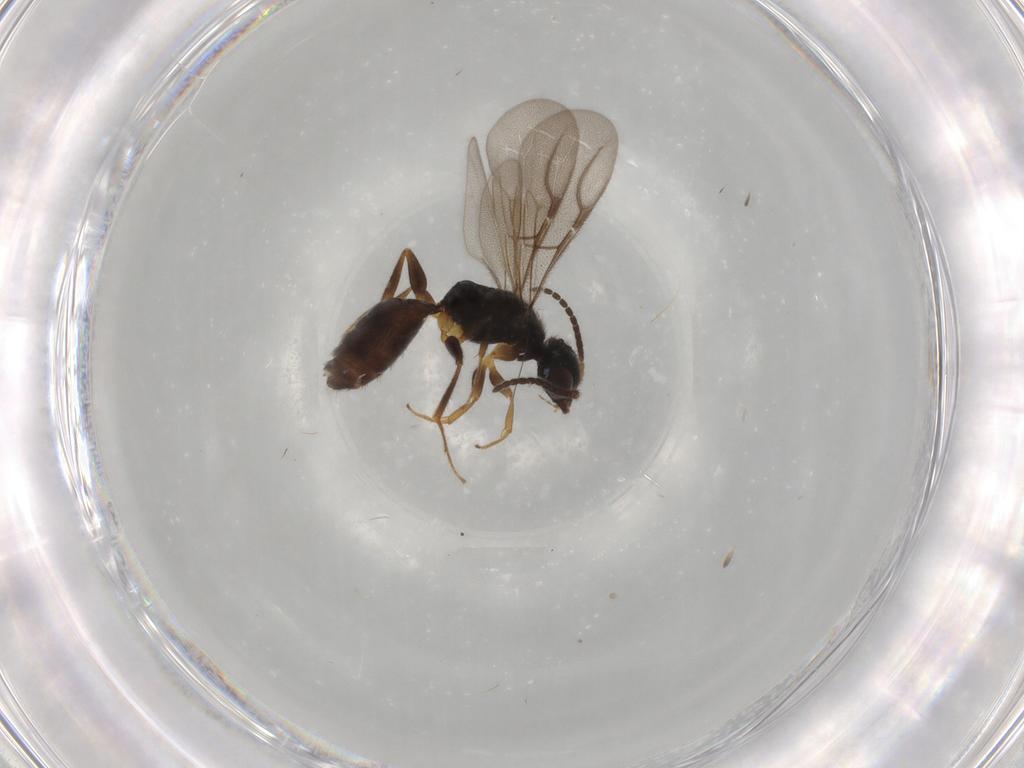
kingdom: Animalia
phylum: Arthropoda
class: Insecta
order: Hymenoptera
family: Bethylidae
